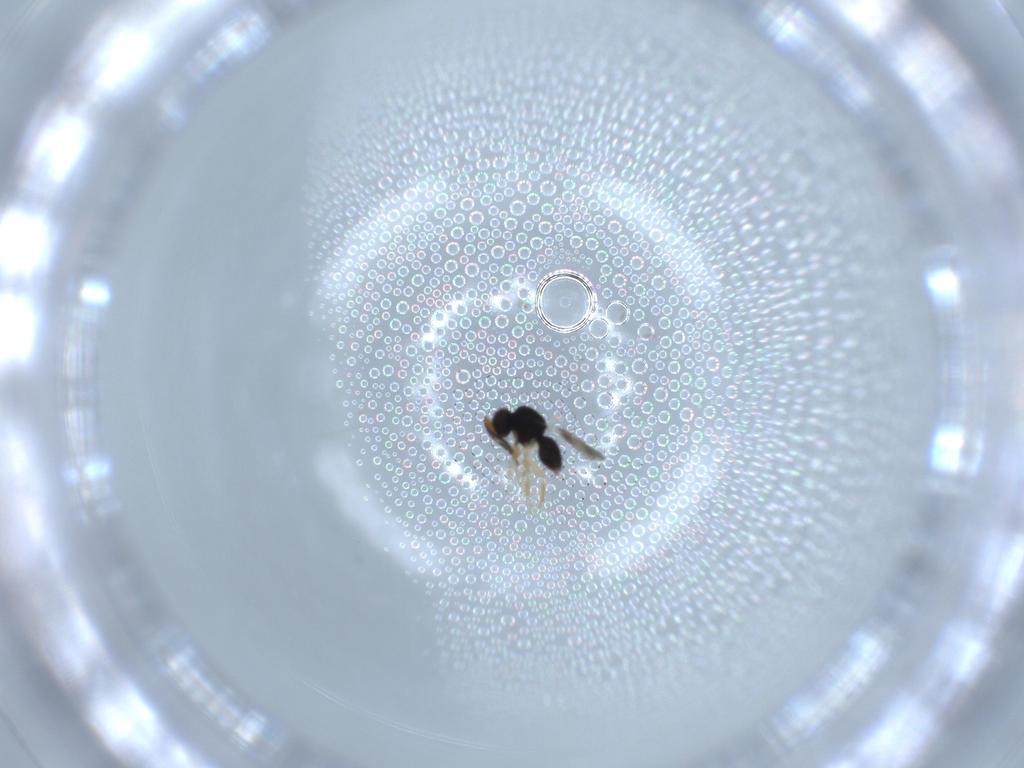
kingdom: Animalia
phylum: Arthropoda
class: Insecta
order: Hymenoptera
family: Ceraphronidae
